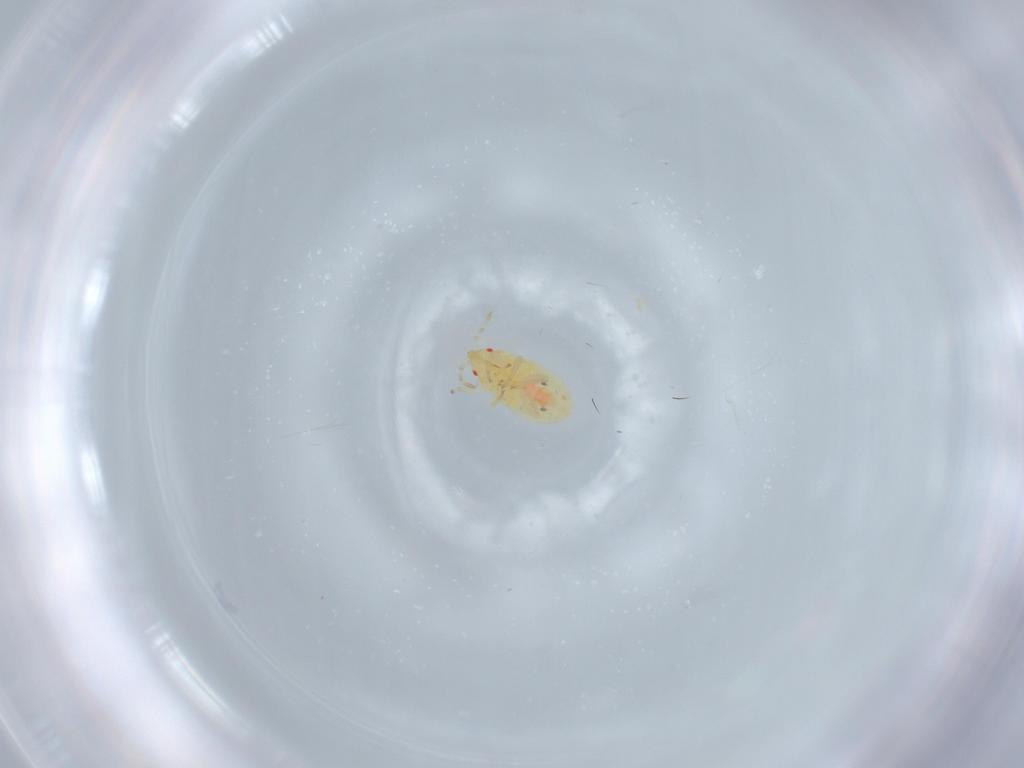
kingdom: Animalia
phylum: Arthropoda
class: Insecta
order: Hemiptera
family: Anthocoridae
